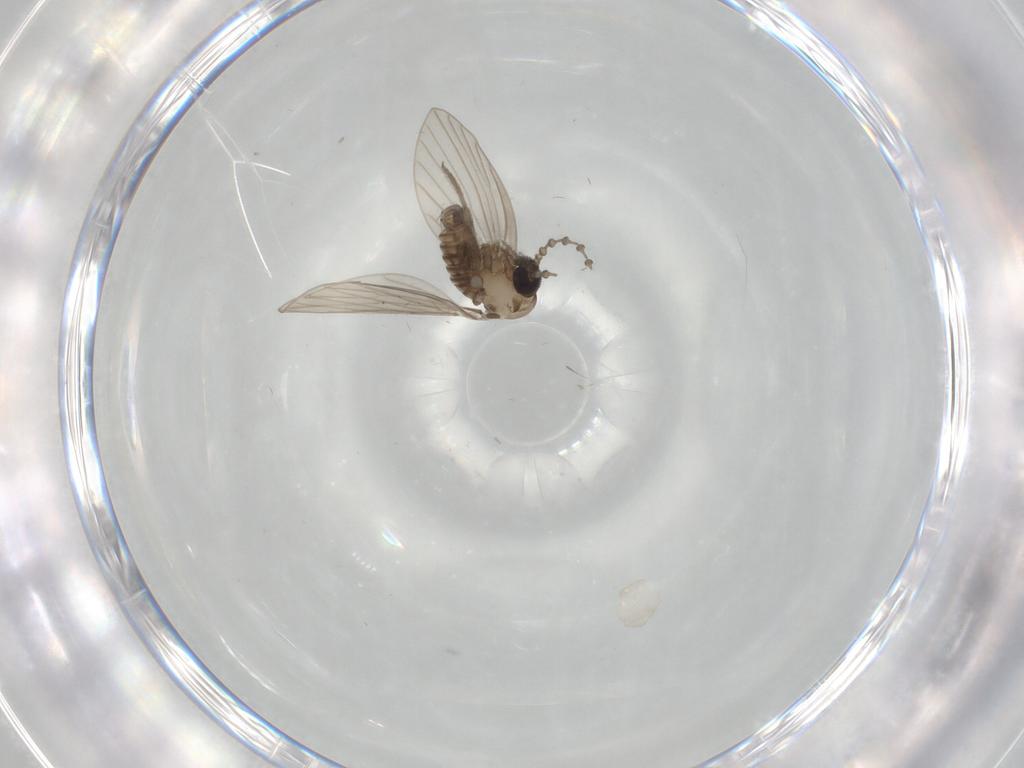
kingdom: Animalia
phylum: Arthropoda
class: Insecta
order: Diptera
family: Psychodidae
